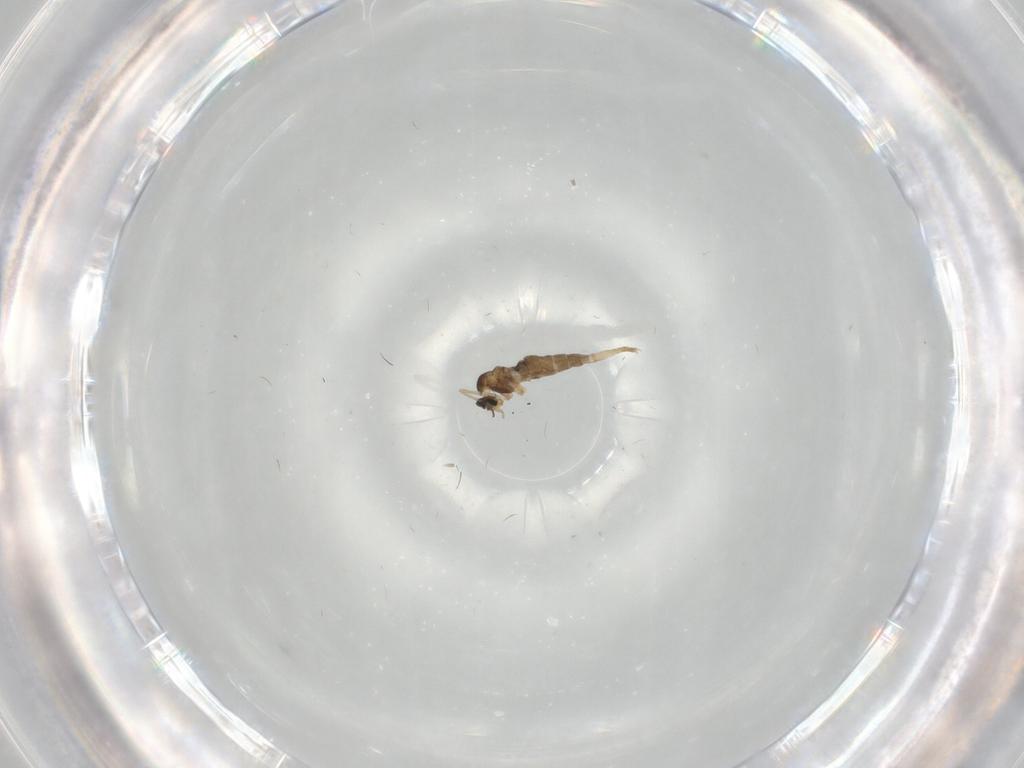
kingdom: Animalia
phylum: Arthropoda
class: Insecta
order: Diptera
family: Cecidomyiidae
